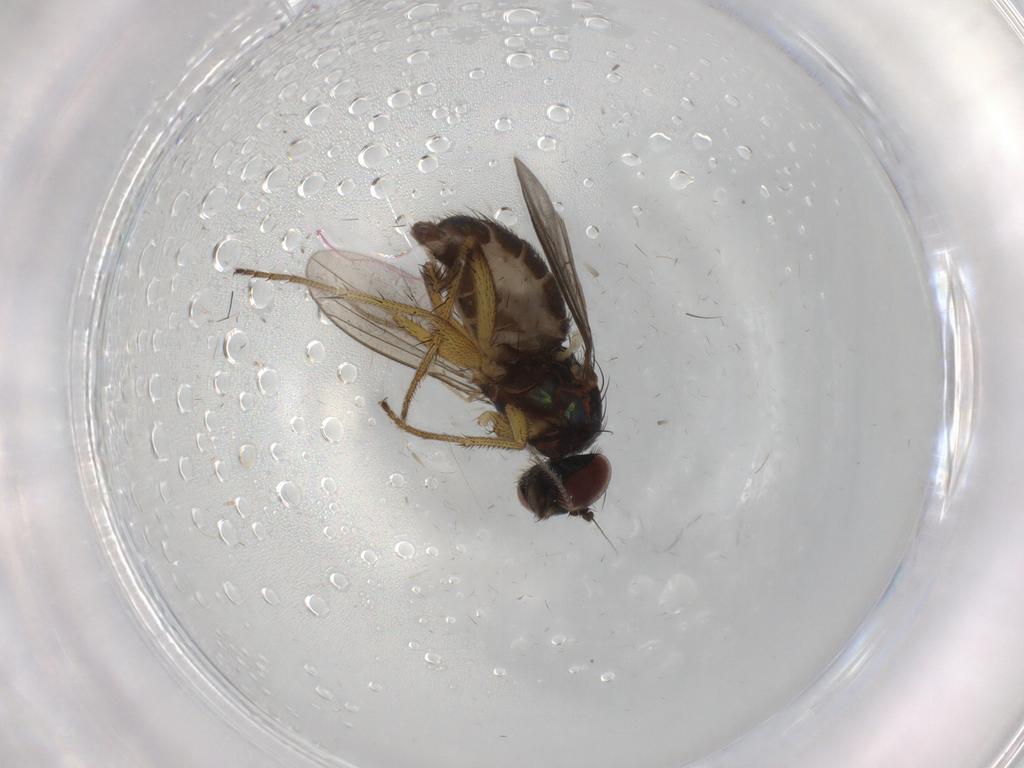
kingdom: Animalia
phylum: Arthropoda
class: Insecta
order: Diptera
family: Dolichopodidae
